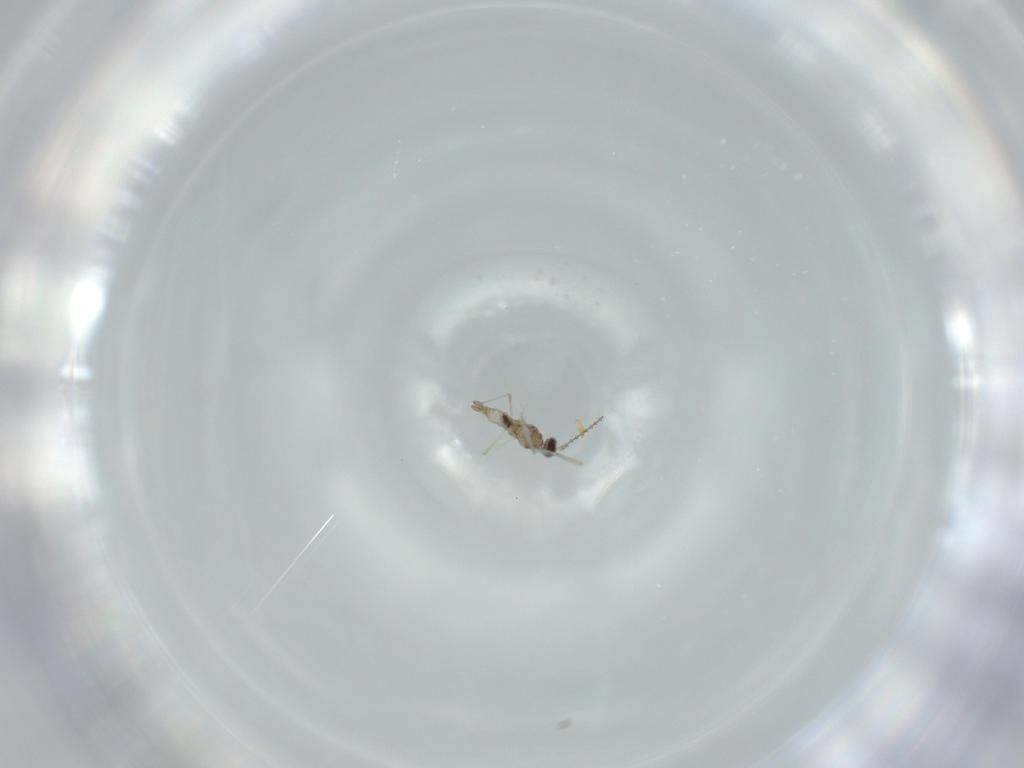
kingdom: Animalia
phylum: Arthropoda
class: Insecta
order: Diptera
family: Cecidomyiidae
